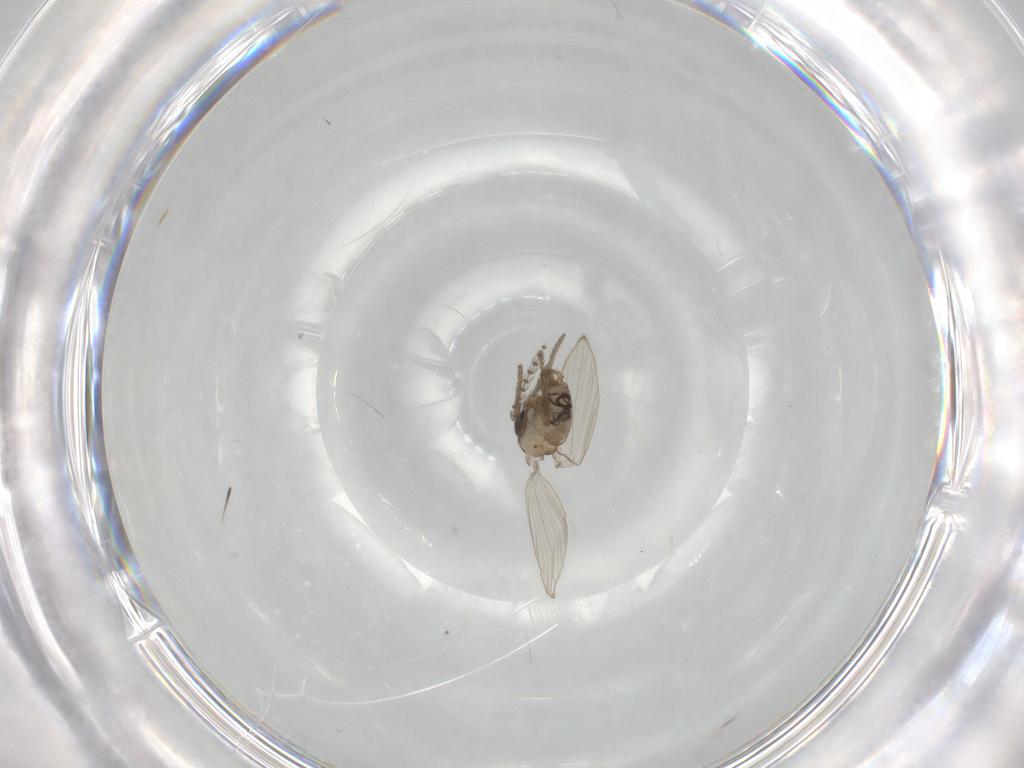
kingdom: Animalia
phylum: Arthropoda
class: Insecta
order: Diptera
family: Psychodidae
